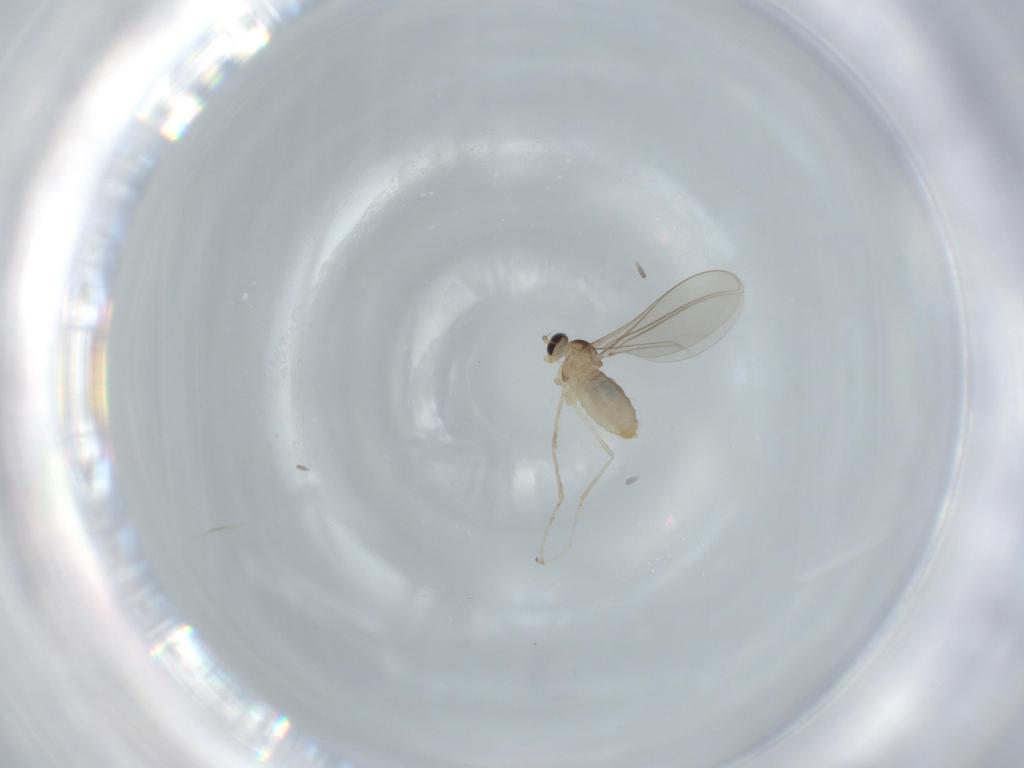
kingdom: Animalia
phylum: Arthropoda
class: Insecta
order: Diptera
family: Cecidomyiidae
